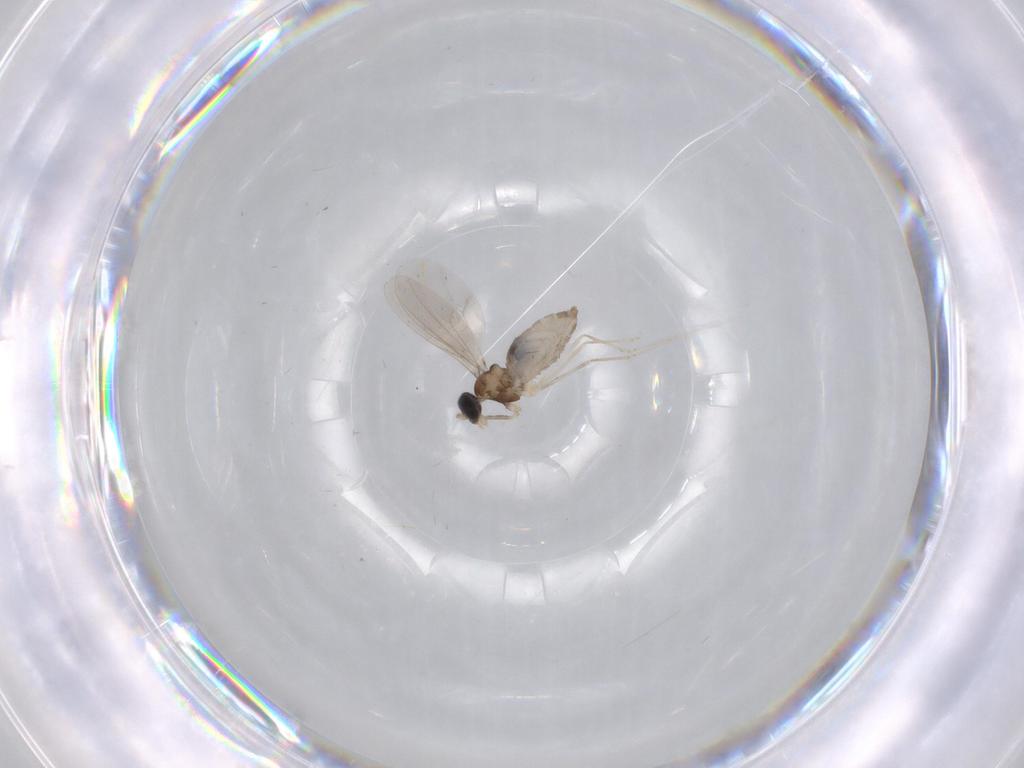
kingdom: Animalia
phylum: Arthropoda
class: Insecta
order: Diptera
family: Cecidomyiidae
